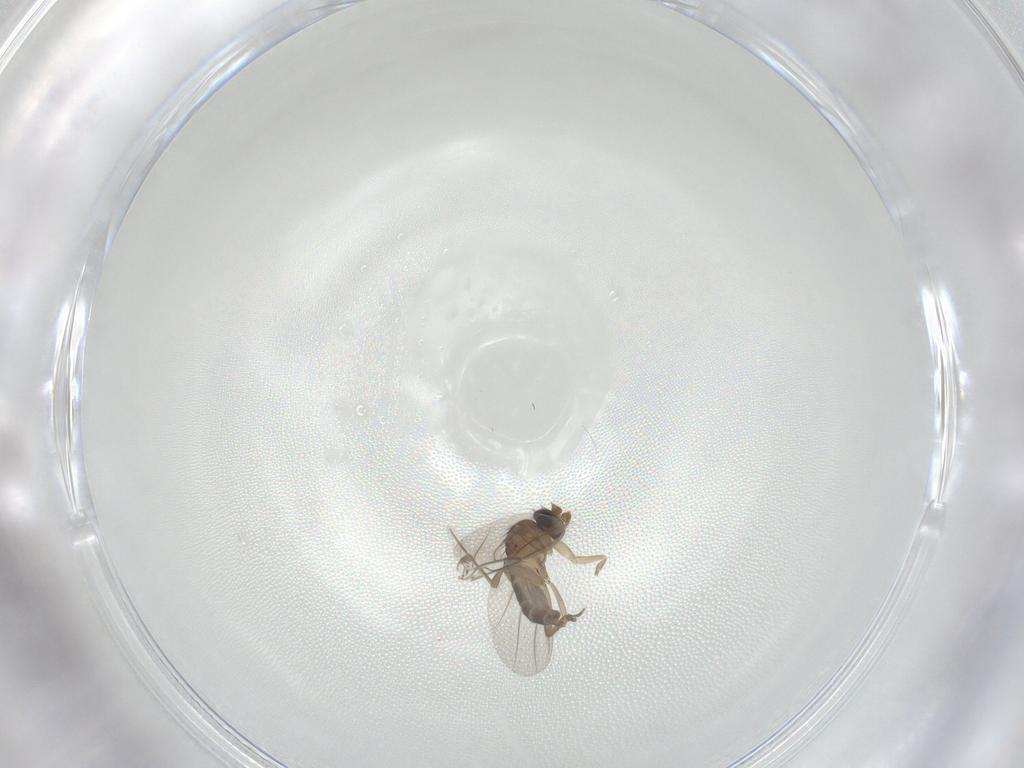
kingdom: Animalia
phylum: Arthropoda
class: Insecta
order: Diptera
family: Phoridae
